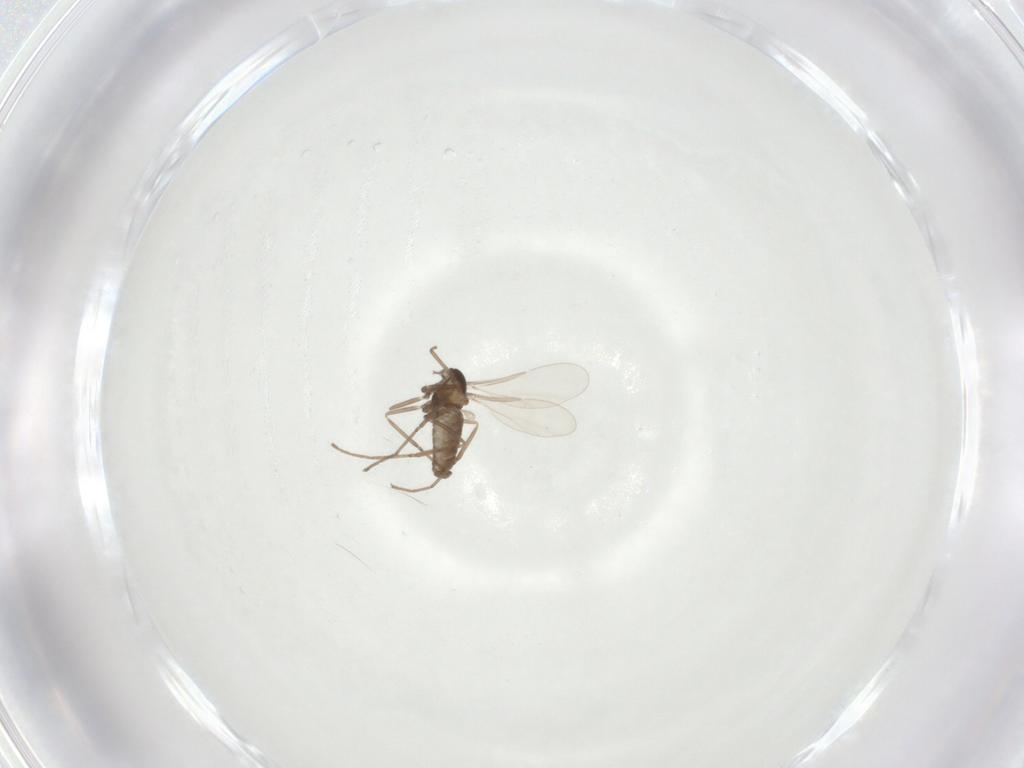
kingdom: Animalia
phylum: Arthropoda
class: Insecta
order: Diptera
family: Cecidomyiidae
